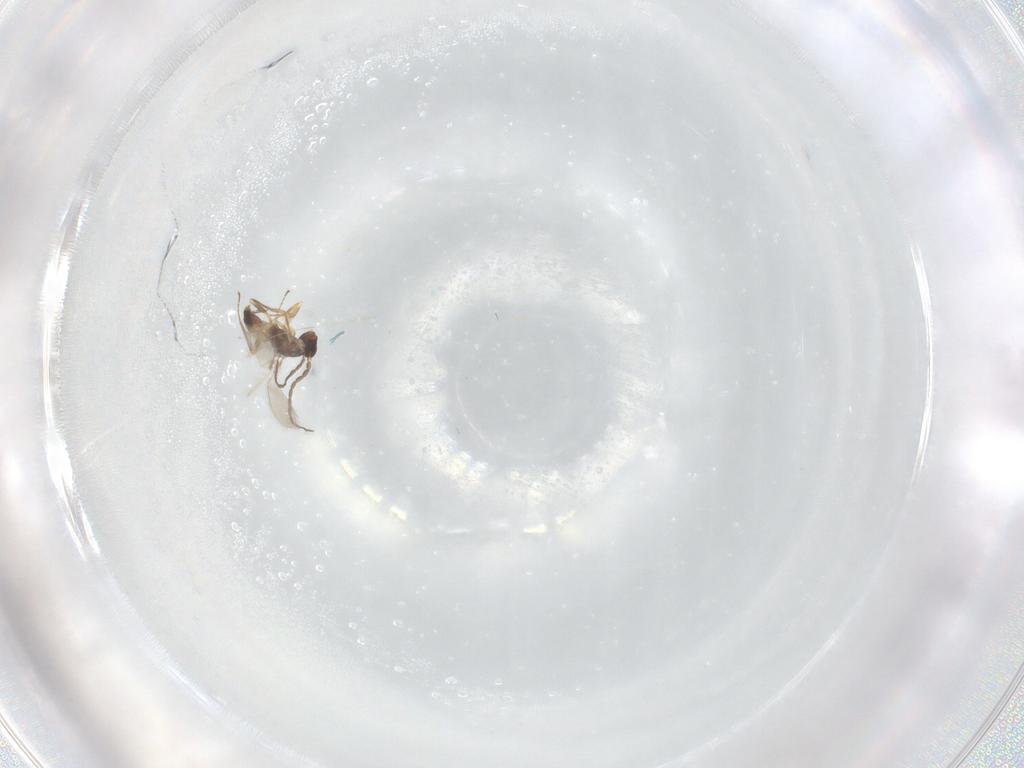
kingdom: Animalia
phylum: Arthropoda
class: Insecta
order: Hymenoptera
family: Mymaridae
